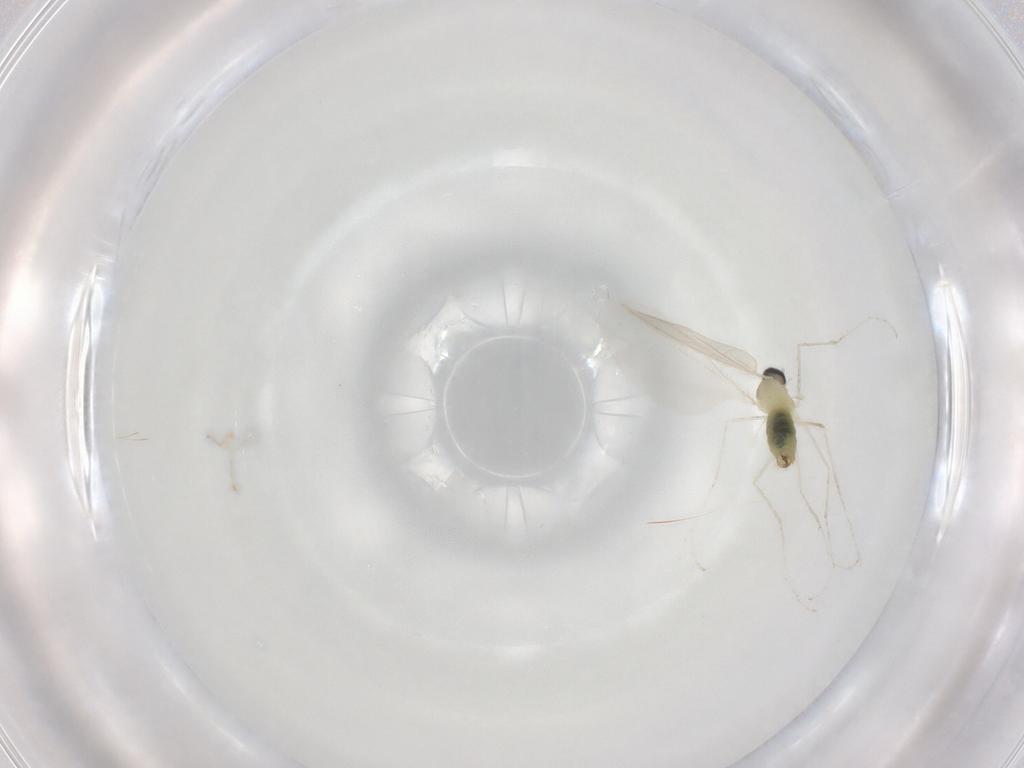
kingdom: Animalia
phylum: Arthropoda
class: Insecta
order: Diptera
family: Cecidomyiidae
